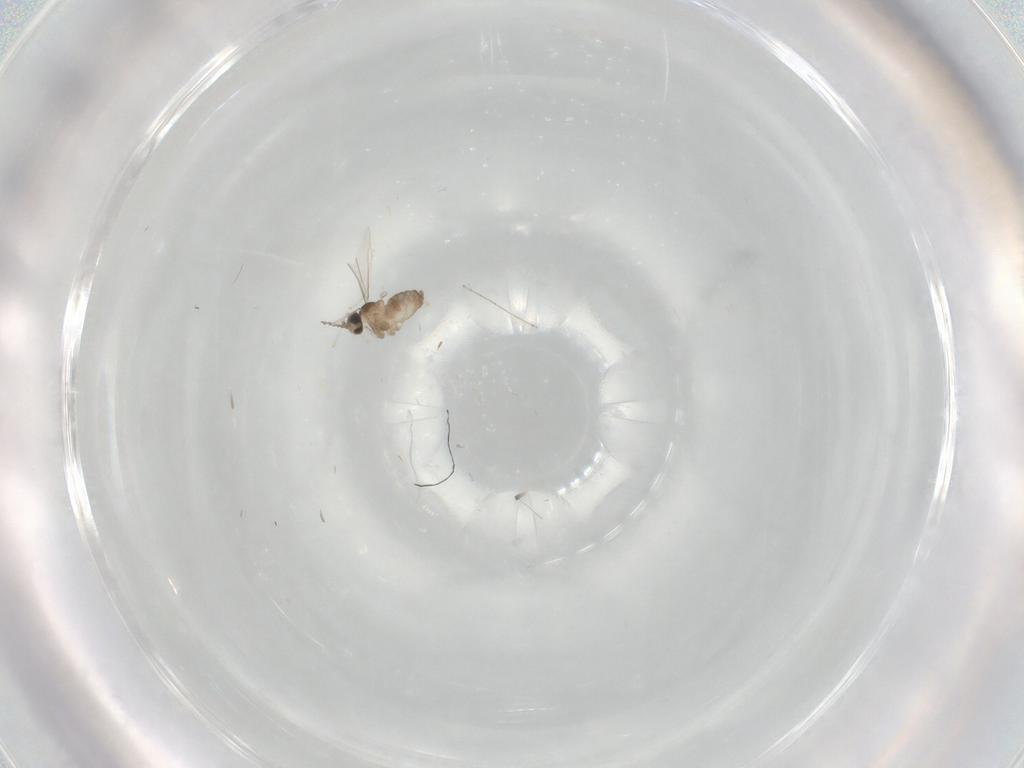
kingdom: Animalia
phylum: Arthropoda
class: Insecta
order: Diptera
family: Cecidomyiidae
